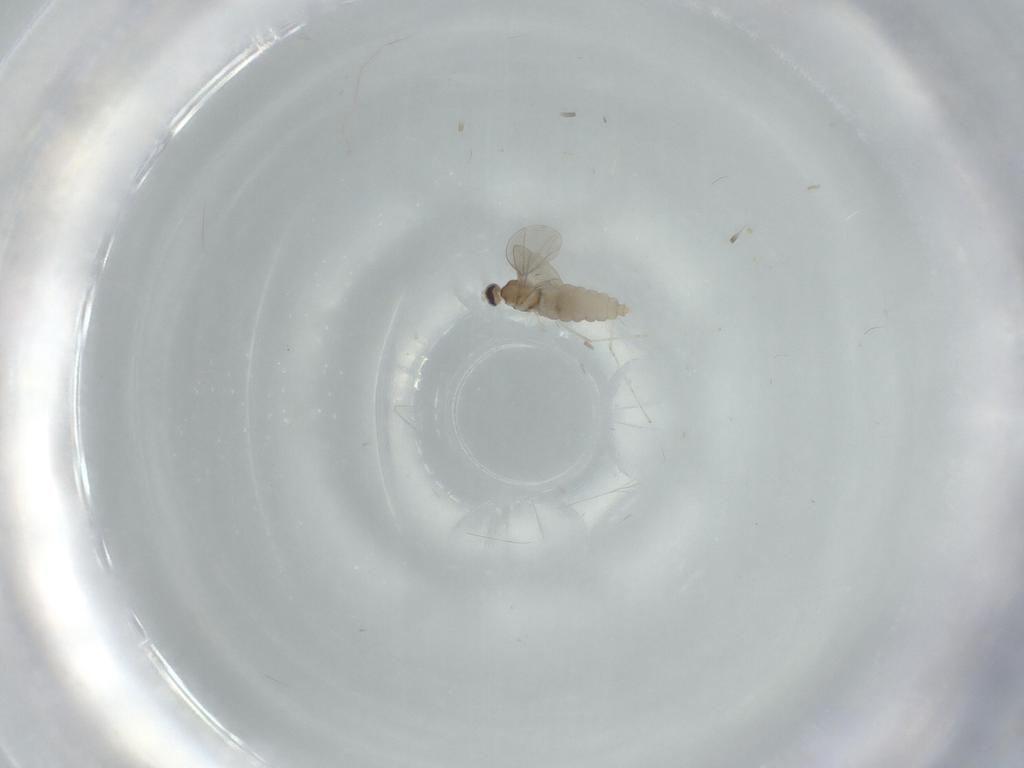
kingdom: Animalia
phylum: Arthropoda
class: Insecta
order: Diptera
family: Cecidomyiidae
